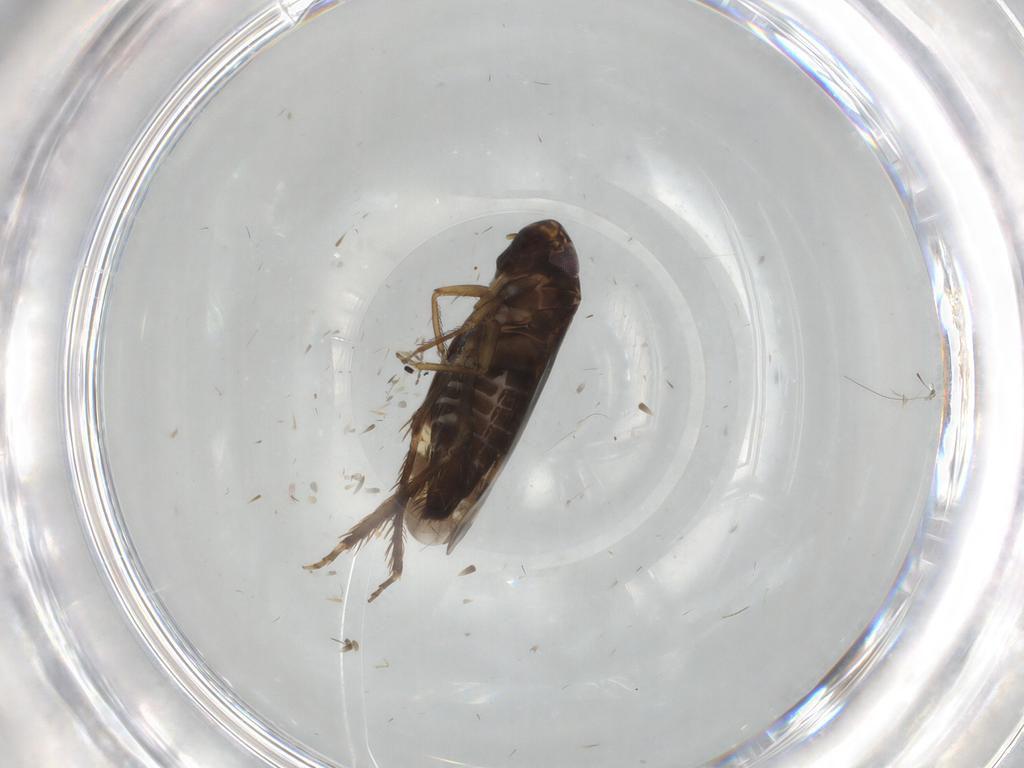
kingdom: Animalia
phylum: Arthropoda
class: Insecta
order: Hemiptera
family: Cicadellidae
